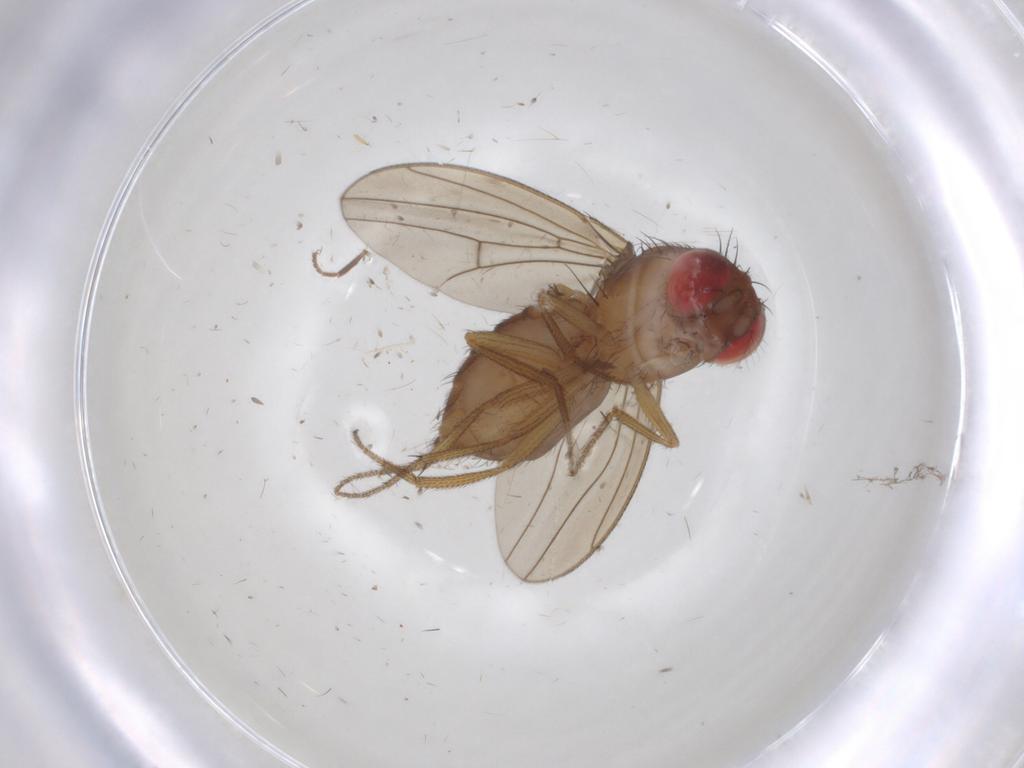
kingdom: Animalia
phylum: Arthropoda
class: Insecta
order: Diptera
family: Drosophilidae
